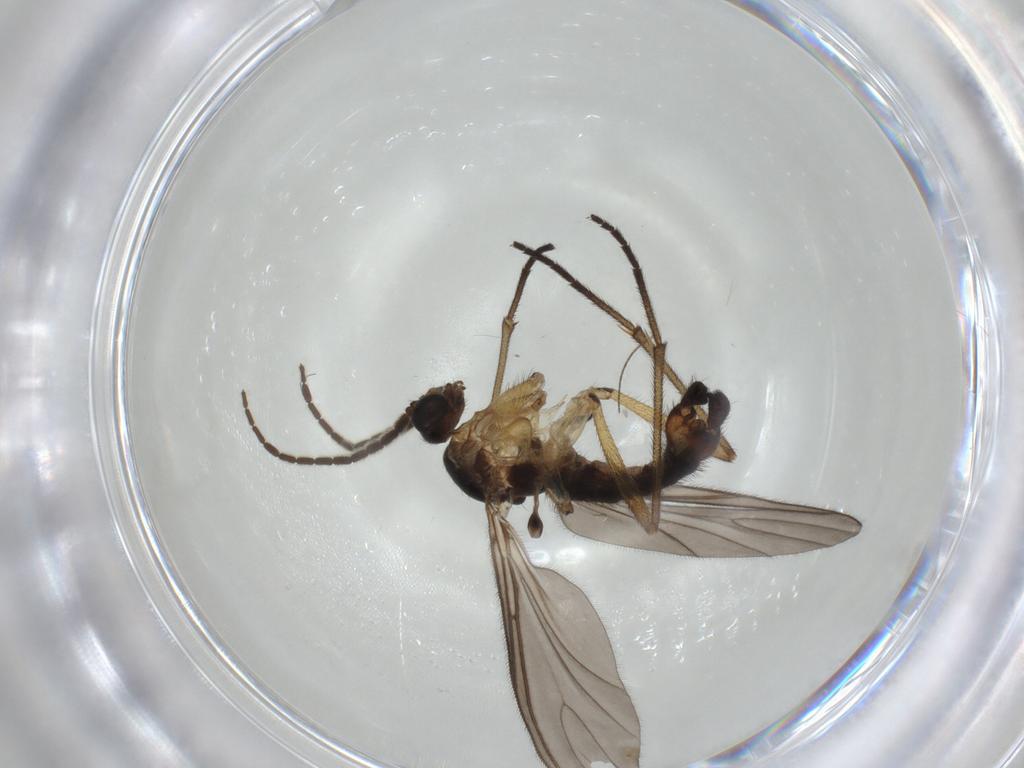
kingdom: Animalia
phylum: Arthropoda
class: Insecta
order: Diptera
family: Sciaridae
